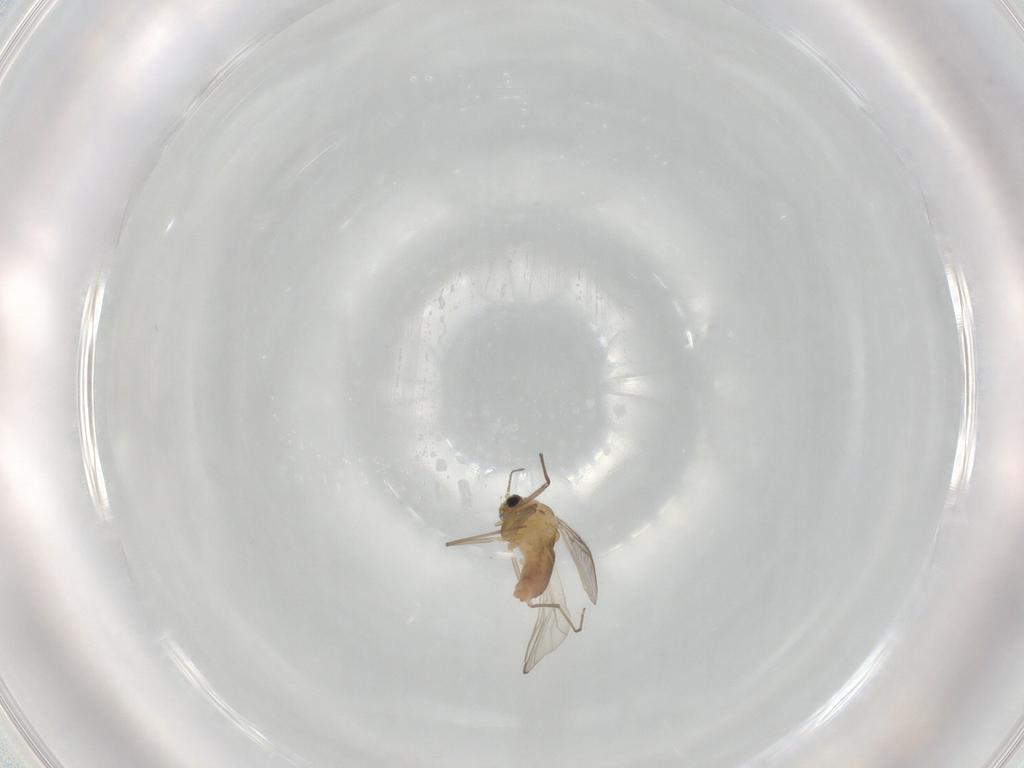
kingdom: Animalia
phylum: Arthropoda
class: Insecta
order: Diptera
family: Chironomidae
